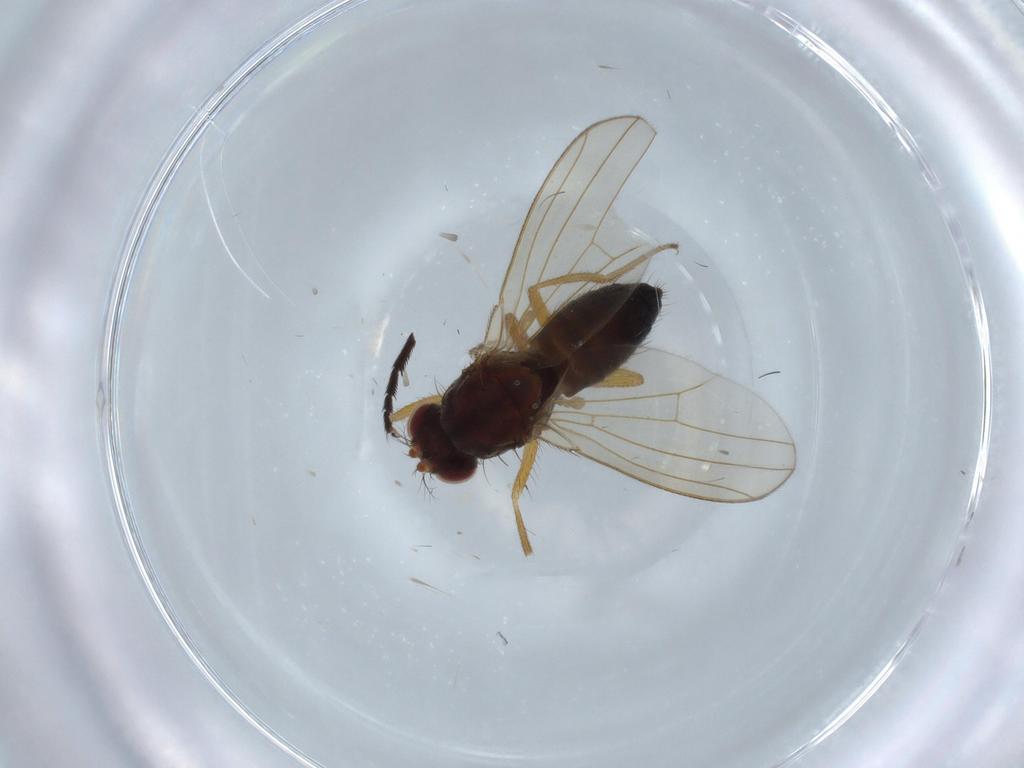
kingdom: Animalia
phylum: Arthropoda
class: Insecta
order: Diptera
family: Drosophilidae
